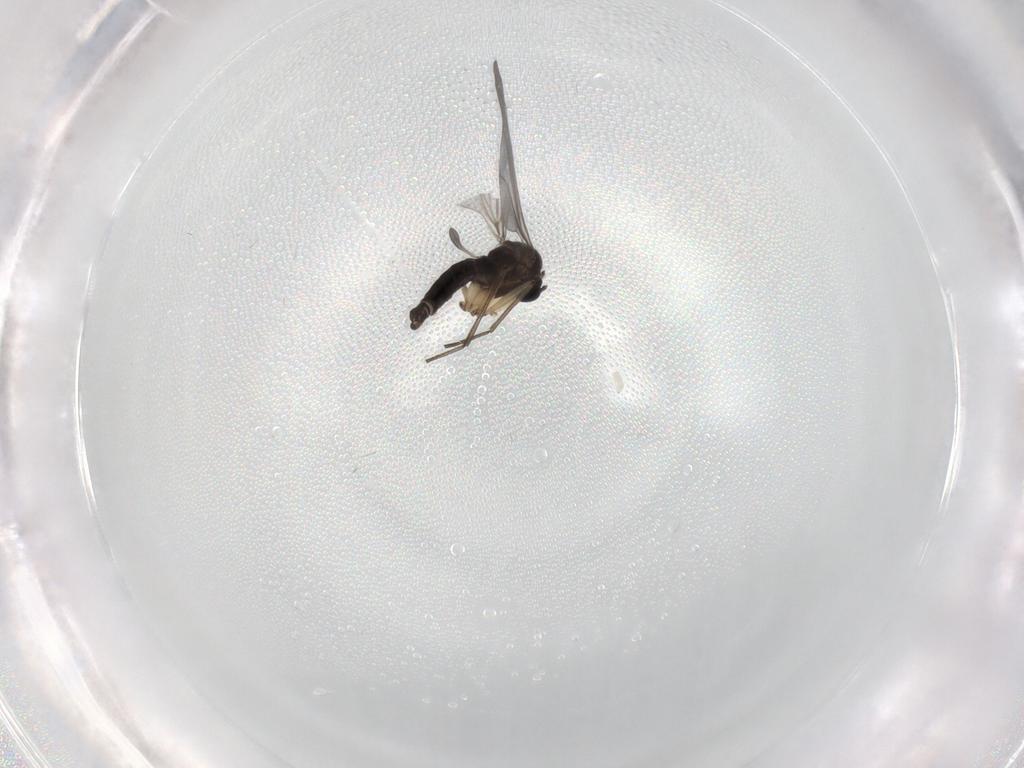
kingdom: Animalia
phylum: Arthropoda
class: Insecta
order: Diptera
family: Sciaridae
